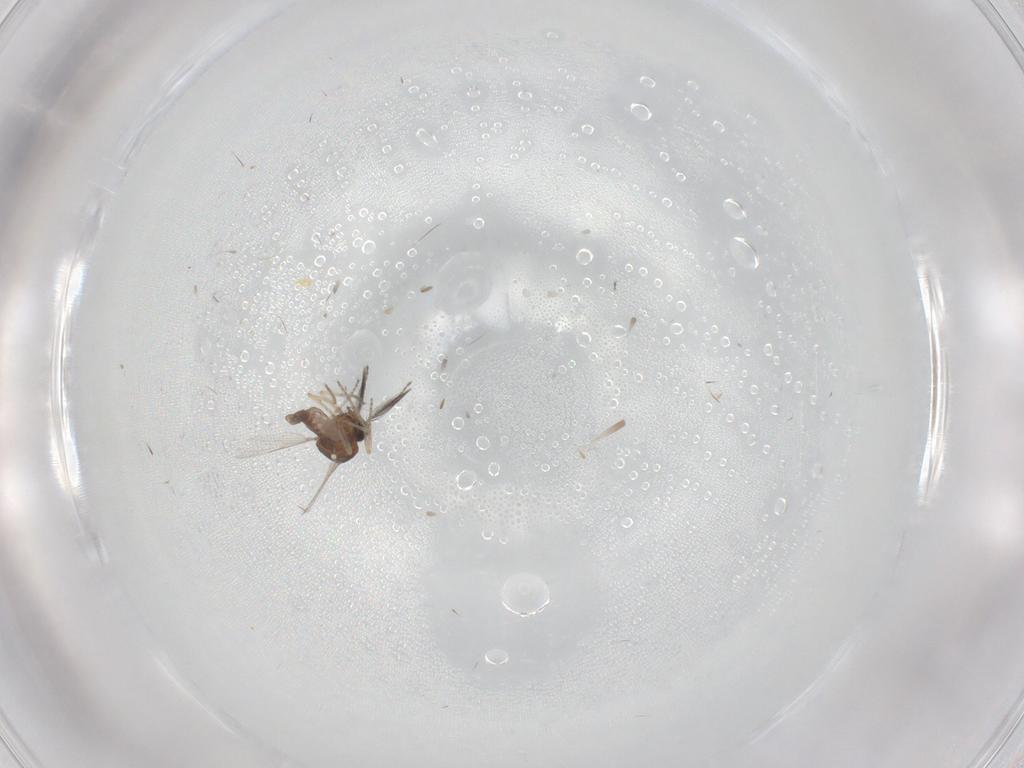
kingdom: Animalia
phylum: Arthropoda
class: Insecta
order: Diptera
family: Ceratopogonidae
